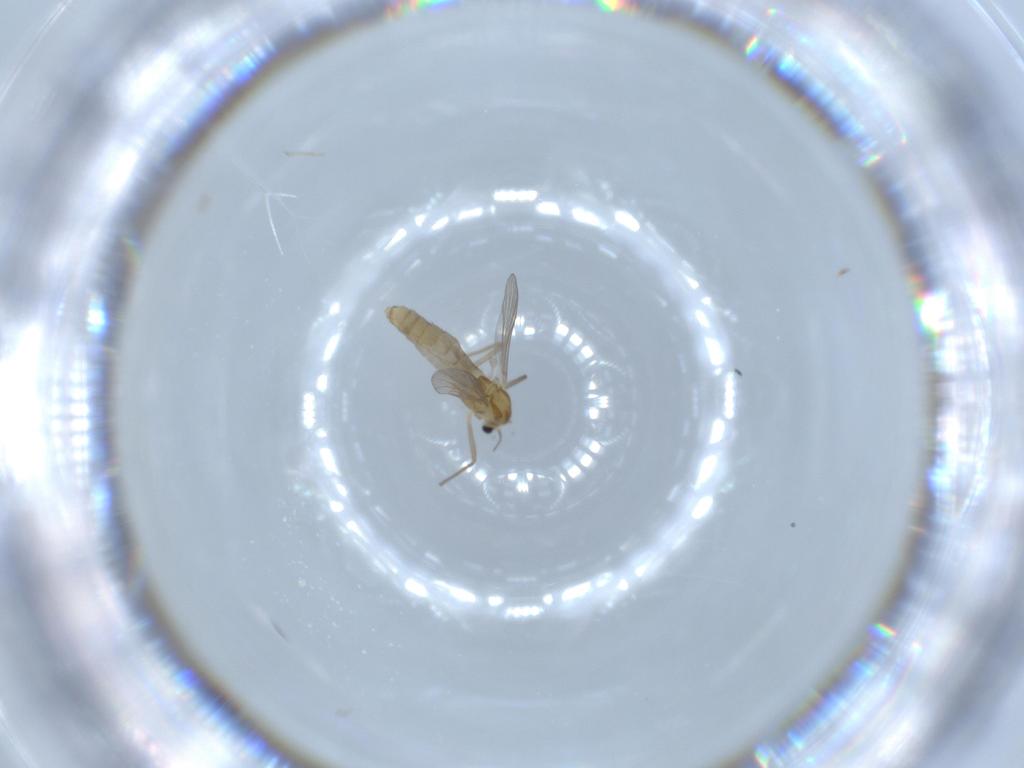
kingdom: Animalia
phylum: Arthropoda
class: Insecta
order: Diptera
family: Chironomidae
